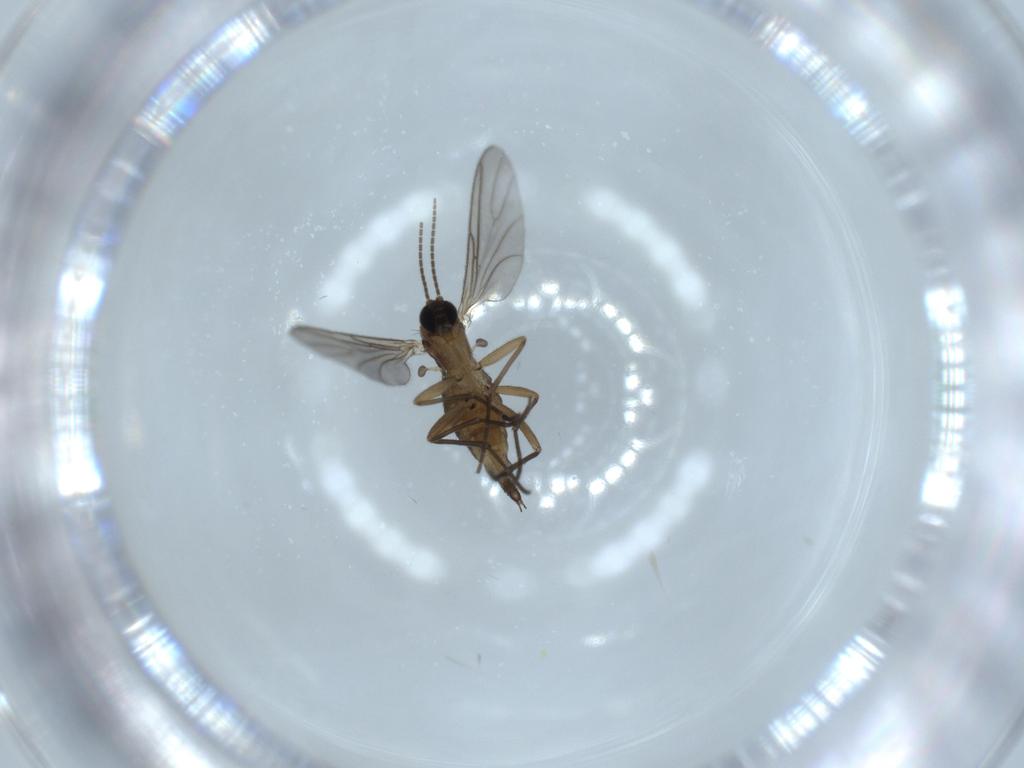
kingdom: Animalia
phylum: Arthropoda
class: Insecta
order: Diptera
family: Sciaridae
